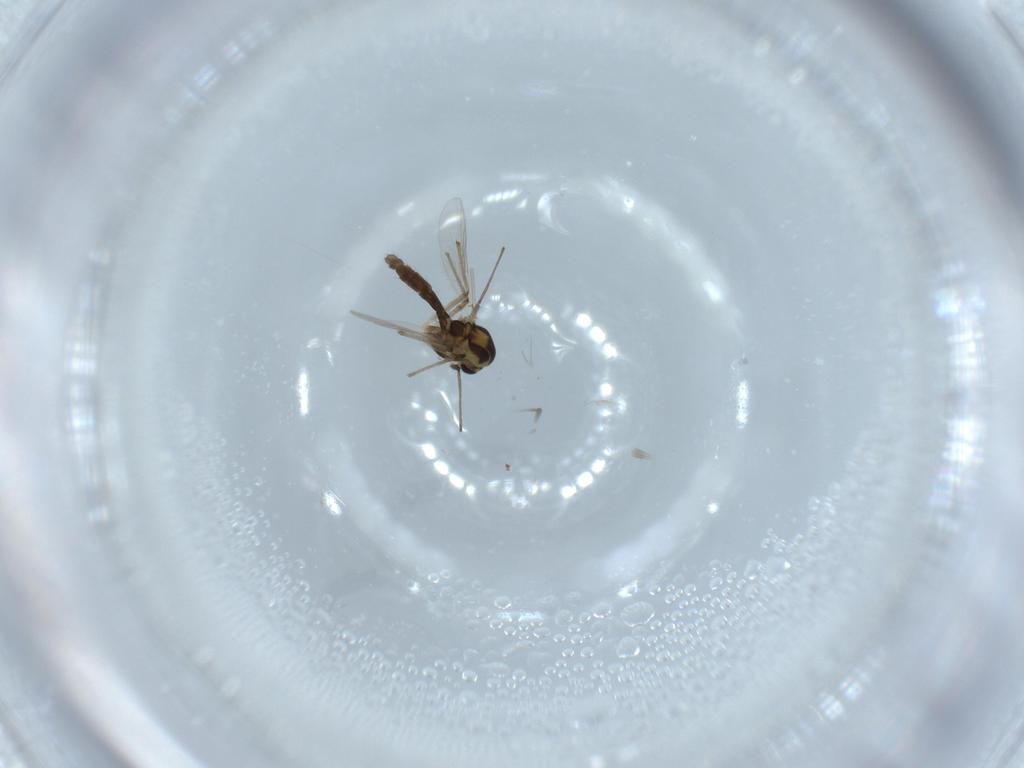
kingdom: Animalia
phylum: Arthropoda
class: Insecta
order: Diptera
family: Chironomidae
